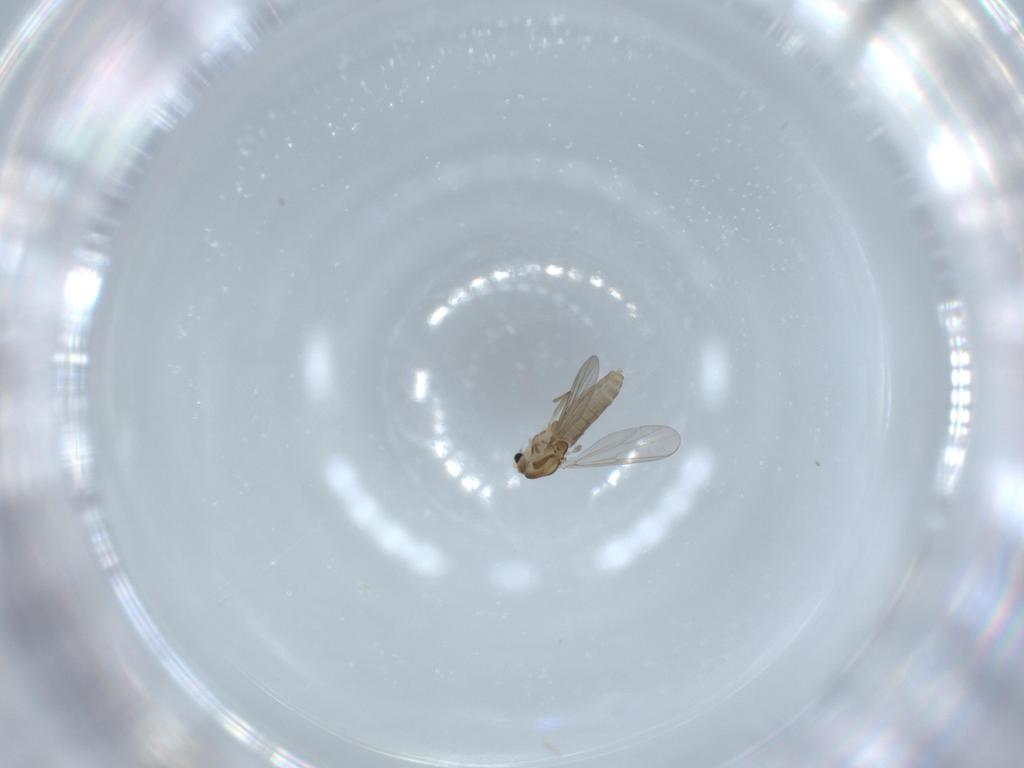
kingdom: Animalia
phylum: Arthropoda
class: Insecta
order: Diptera
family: Chironomidae
